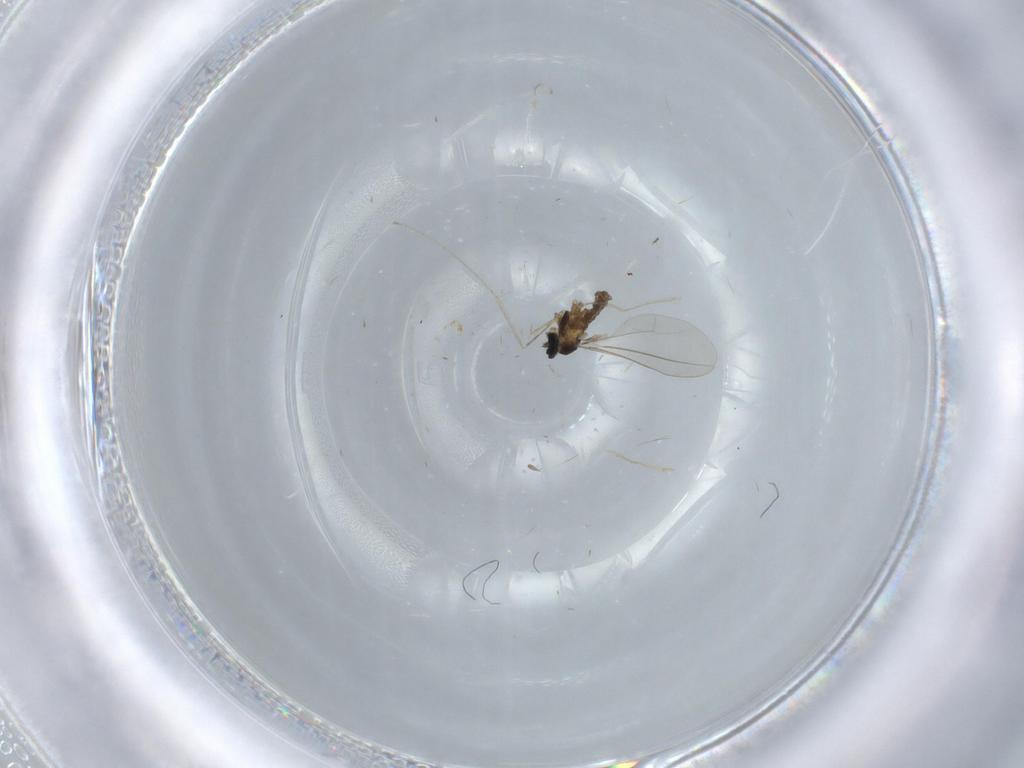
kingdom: Animalia
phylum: Arthropoda
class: Insecta
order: Diptera
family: Cecidomyiidae
